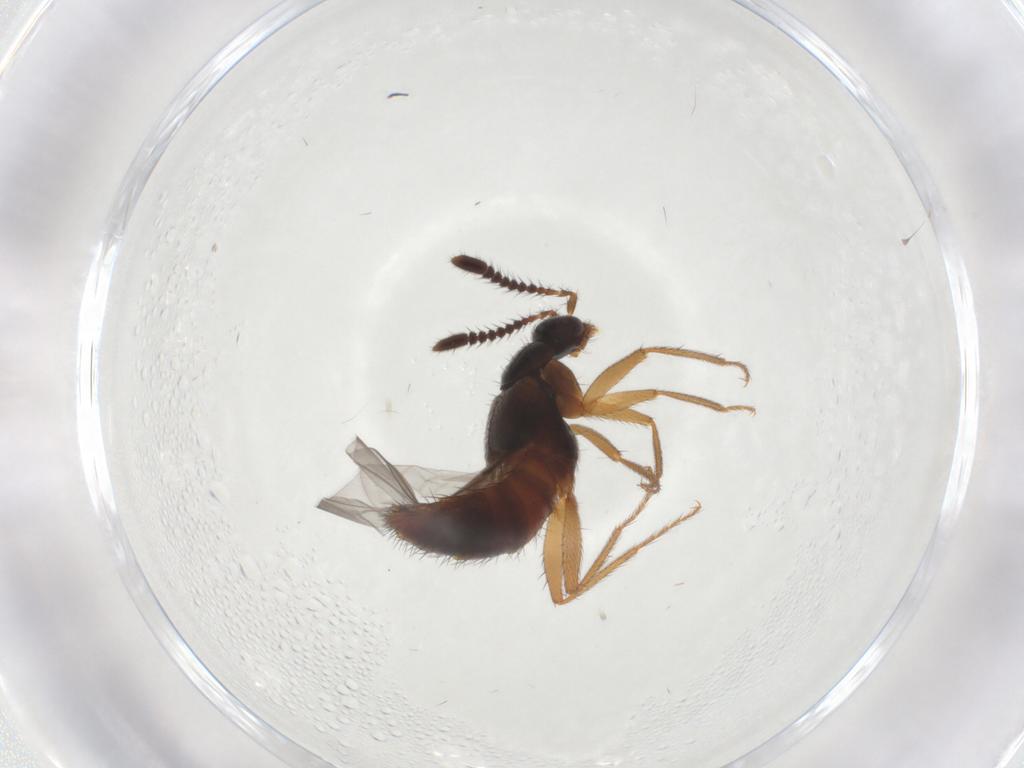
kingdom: Animalia
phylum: Arthropoda
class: Insecta
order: Coleoptera
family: Staphylinidae
